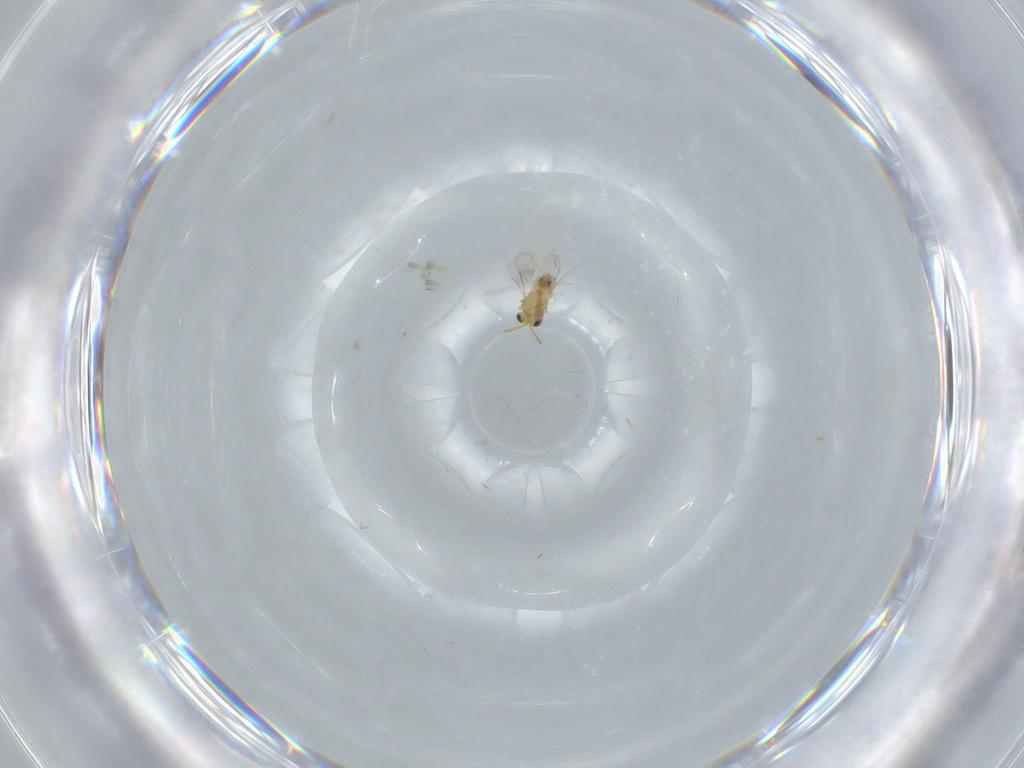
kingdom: Animalia
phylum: Arthropoda
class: Insecta
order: Hymenoptera
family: Aphelinidae
